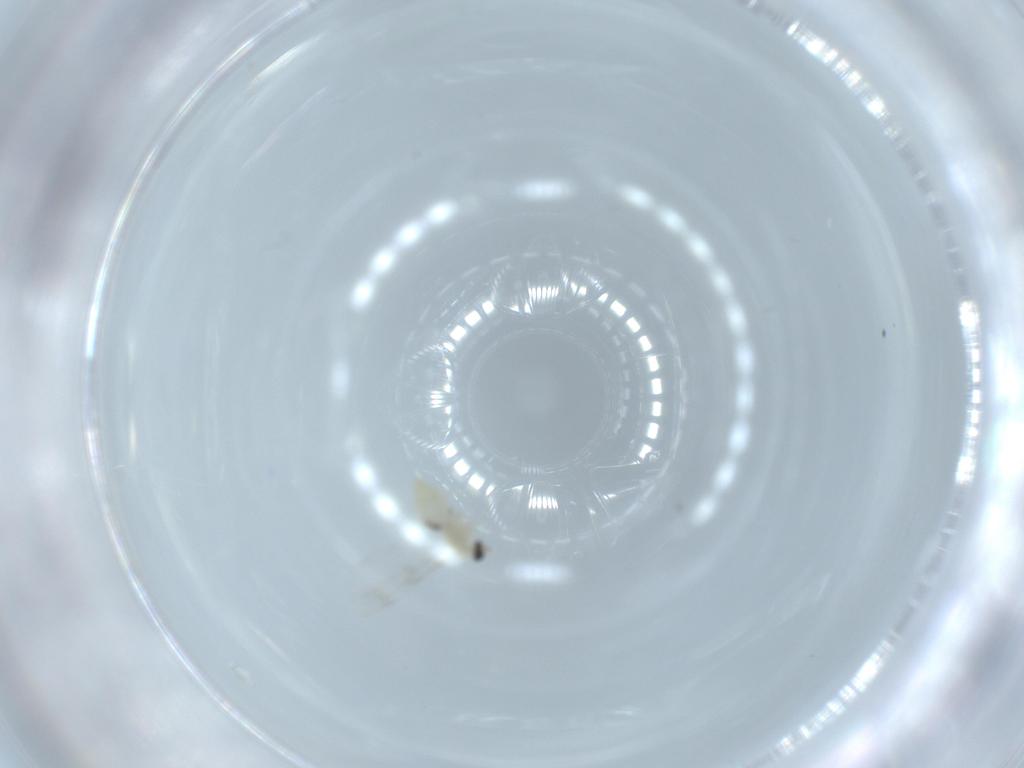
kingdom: Animalia
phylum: Arthropoda
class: Insecta
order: Diptera
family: Cecidomyiidae
